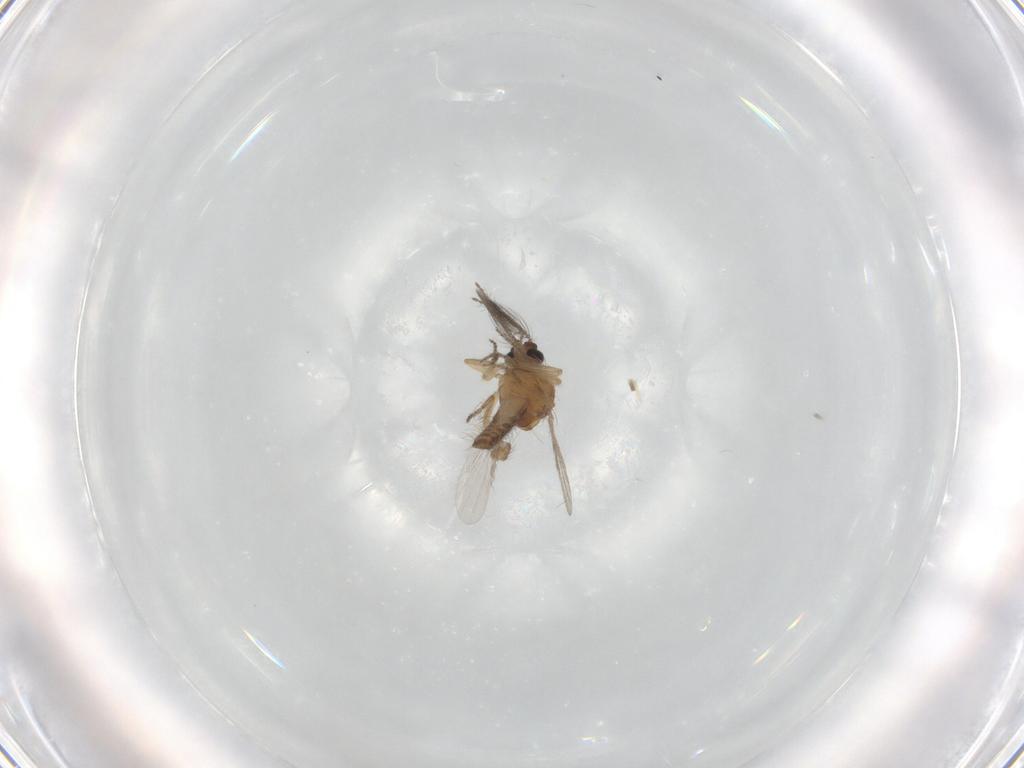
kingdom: Animalia
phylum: Arthropoda
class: Insecta
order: Diptera
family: Ceratopogonidae
